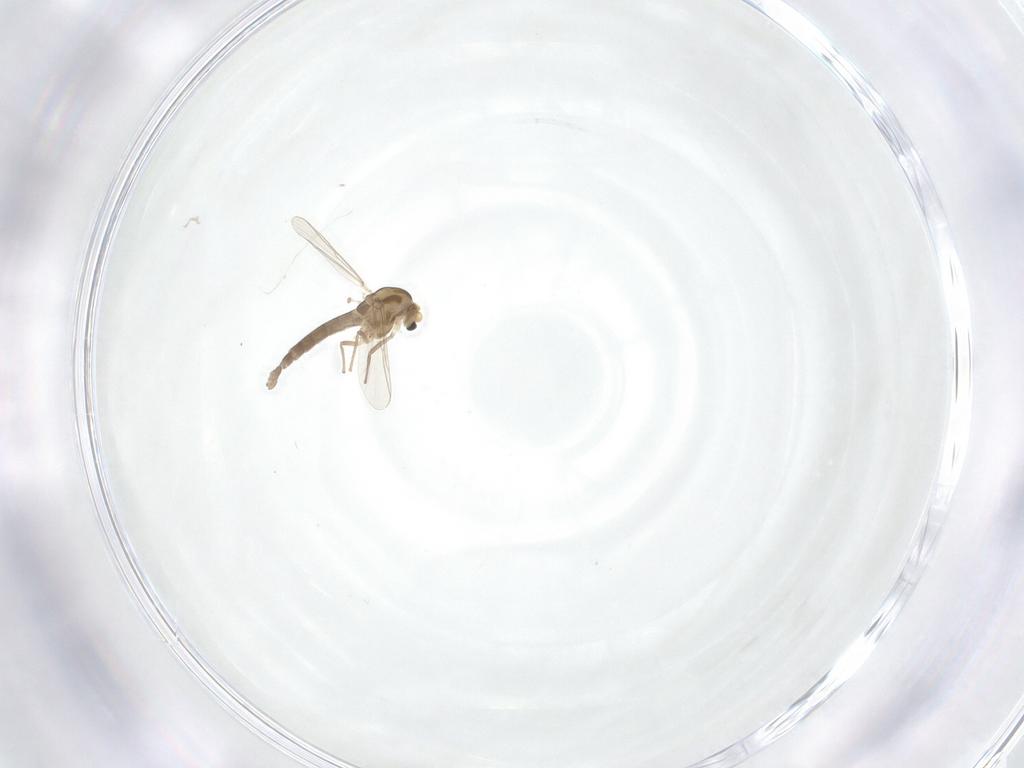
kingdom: Animalia
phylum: Arthropoda
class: Insecta
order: Diptera
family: Chironomidae
